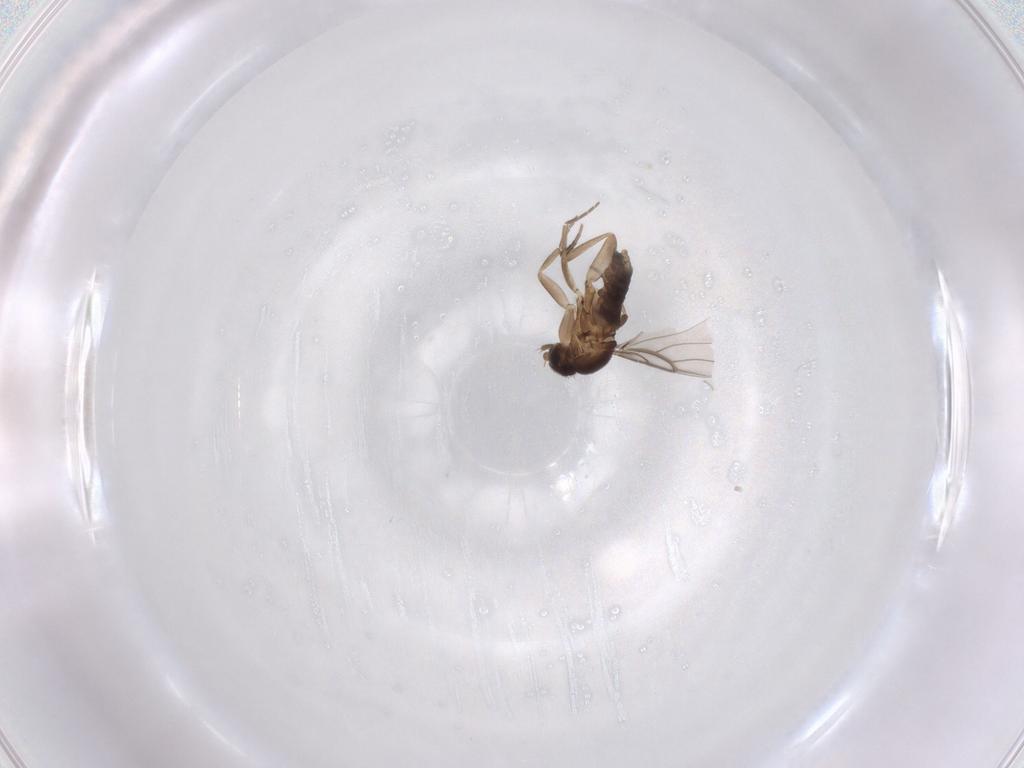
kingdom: Animalia
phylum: Arthropoda
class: Insecta
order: Diptera
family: Phoridae
